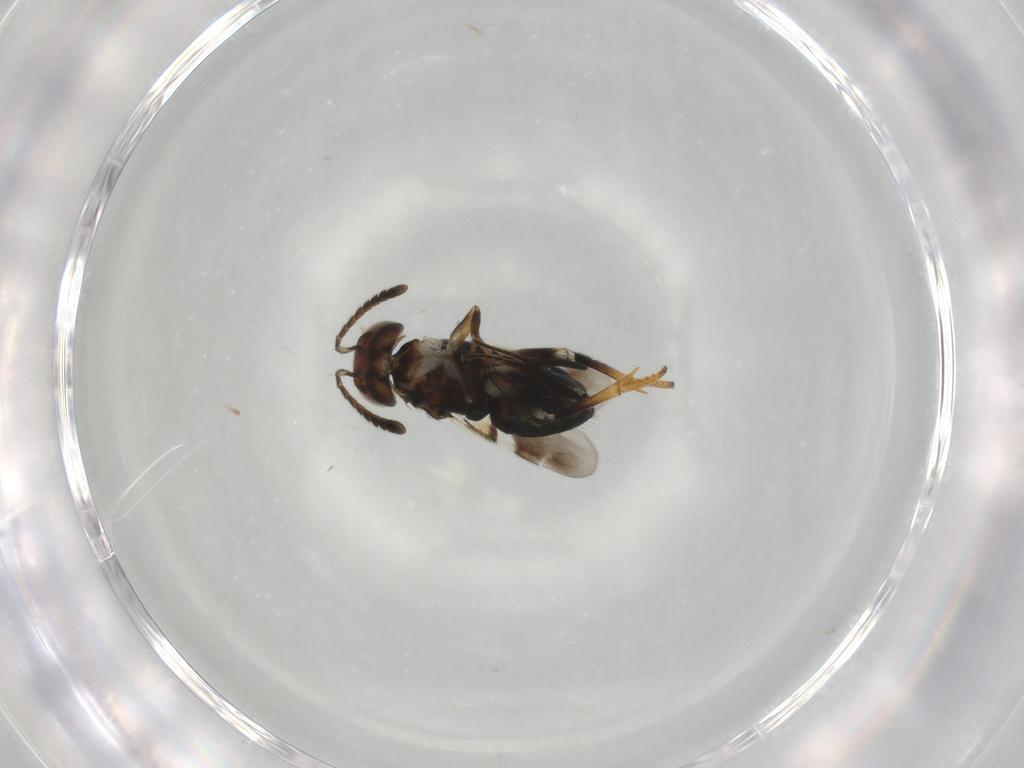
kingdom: Animalia
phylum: Arthropoda
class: Insecta
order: Hymenoptera
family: Encyrtidae
